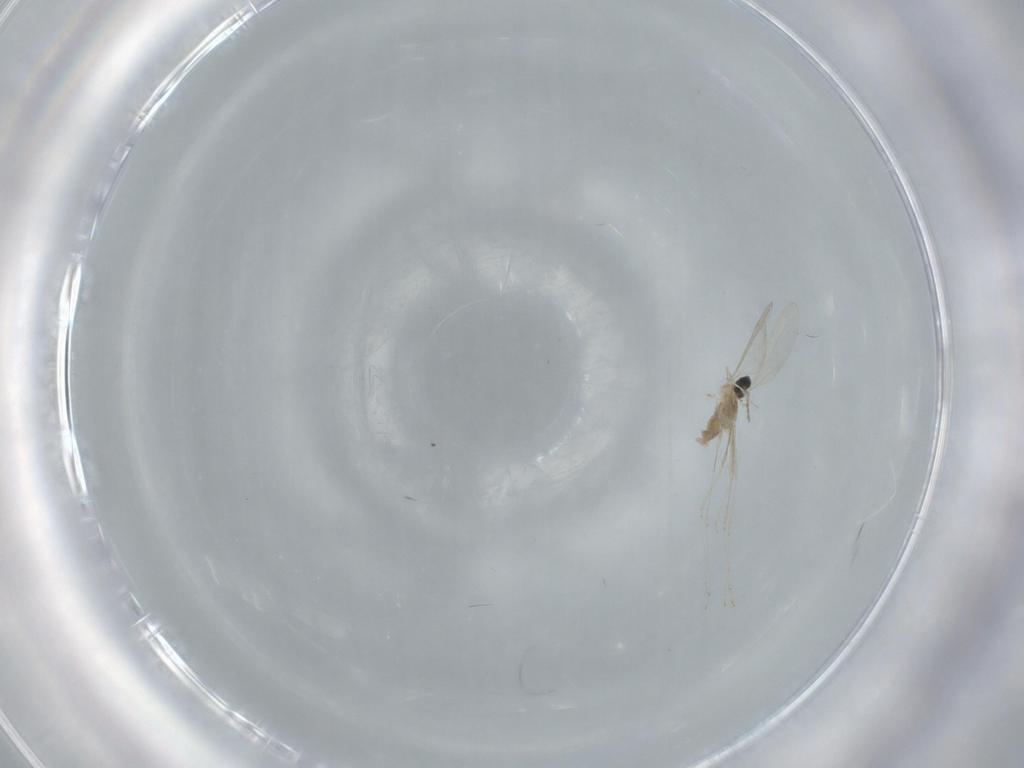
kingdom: Animalia
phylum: Arthropoda
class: Insecta
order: Diptera
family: Cecidomyiidae
